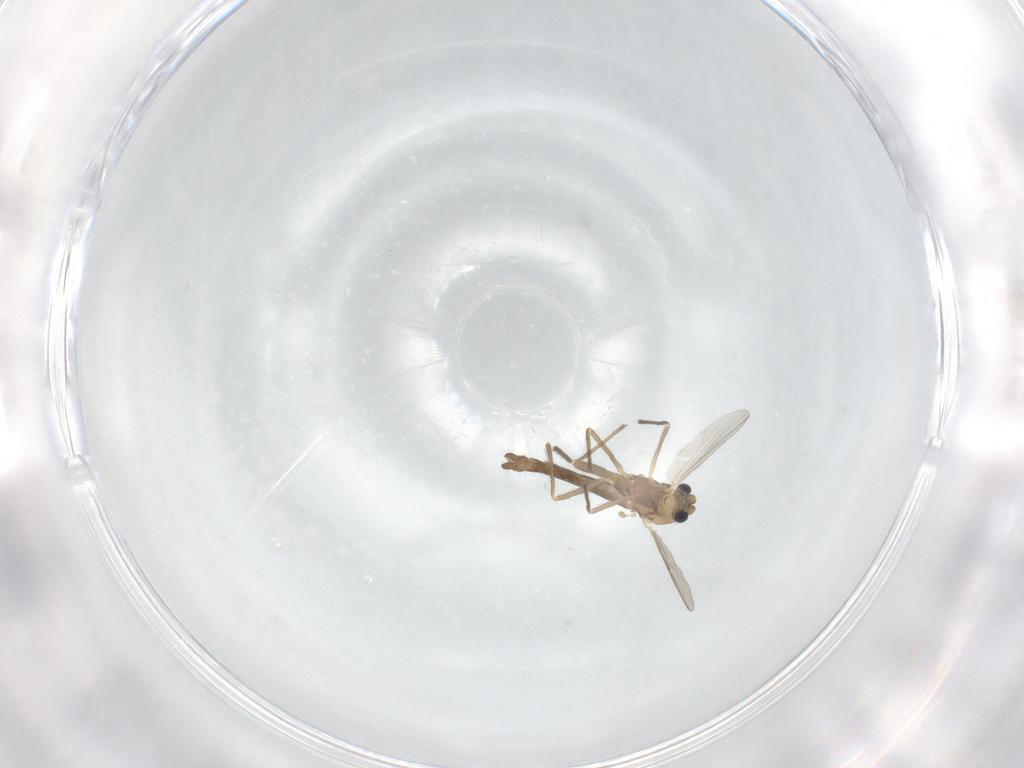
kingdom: Animalia
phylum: Arthropoda
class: Insecta
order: Diptera
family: Chironomidae
